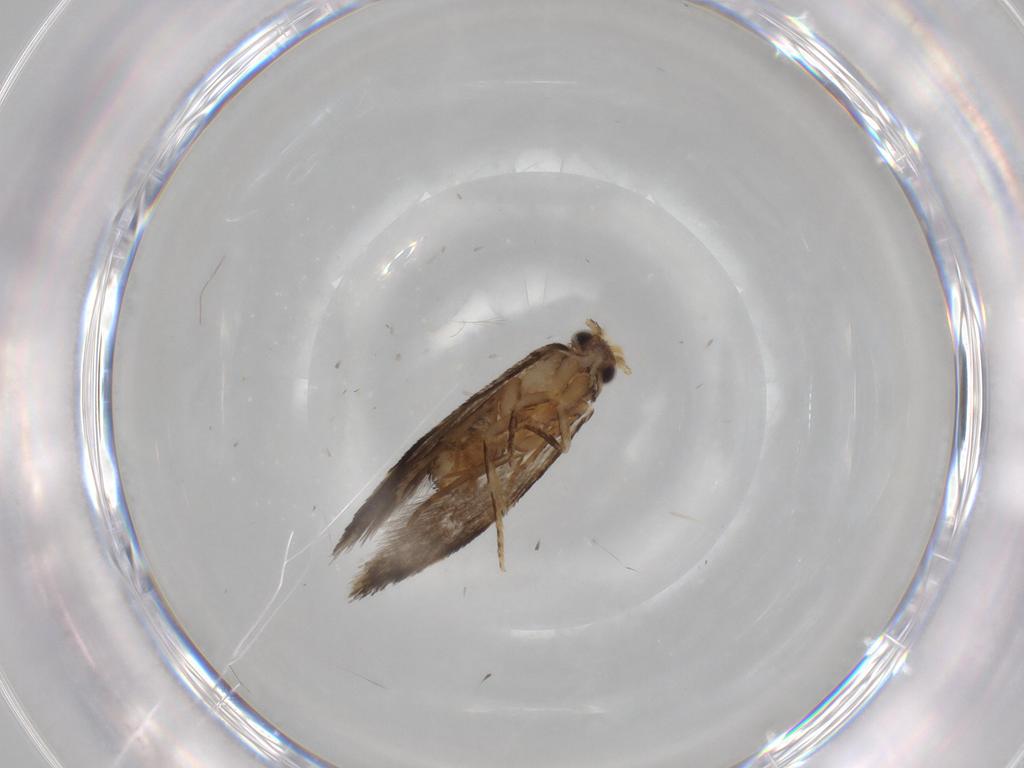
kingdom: Animalia
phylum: Arthropoda
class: Insecta
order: Lepidoptera
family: Tineidae
